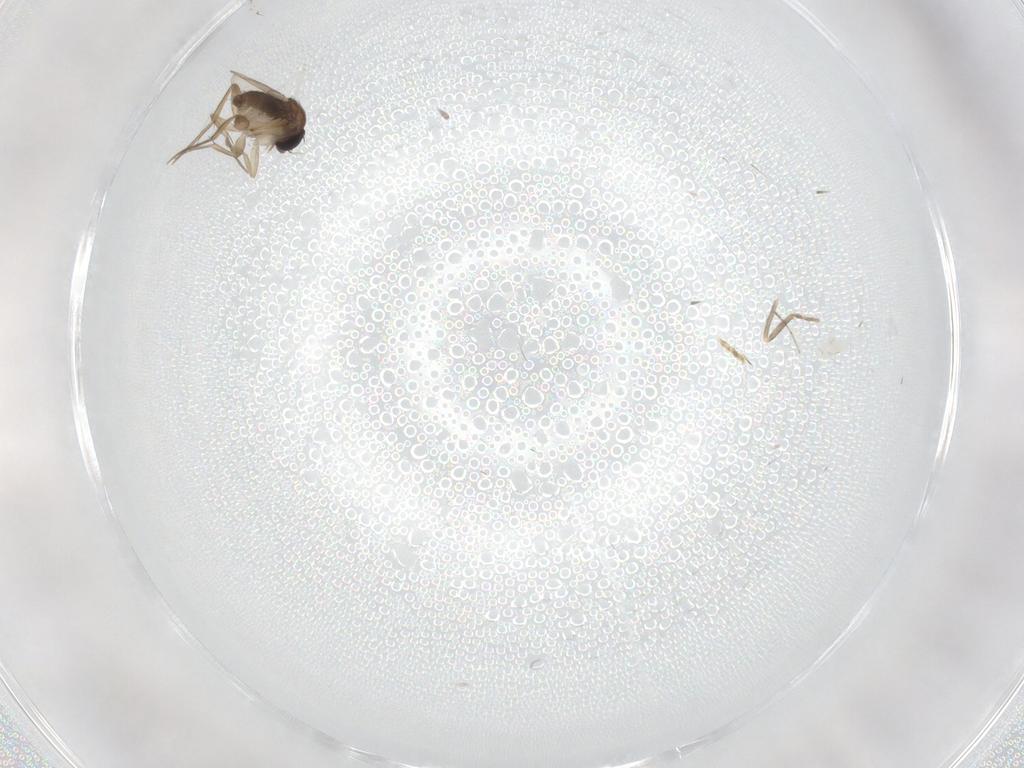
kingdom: Animalia
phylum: Arthropoda
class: Insecta
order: Diptera
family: Phoridae
